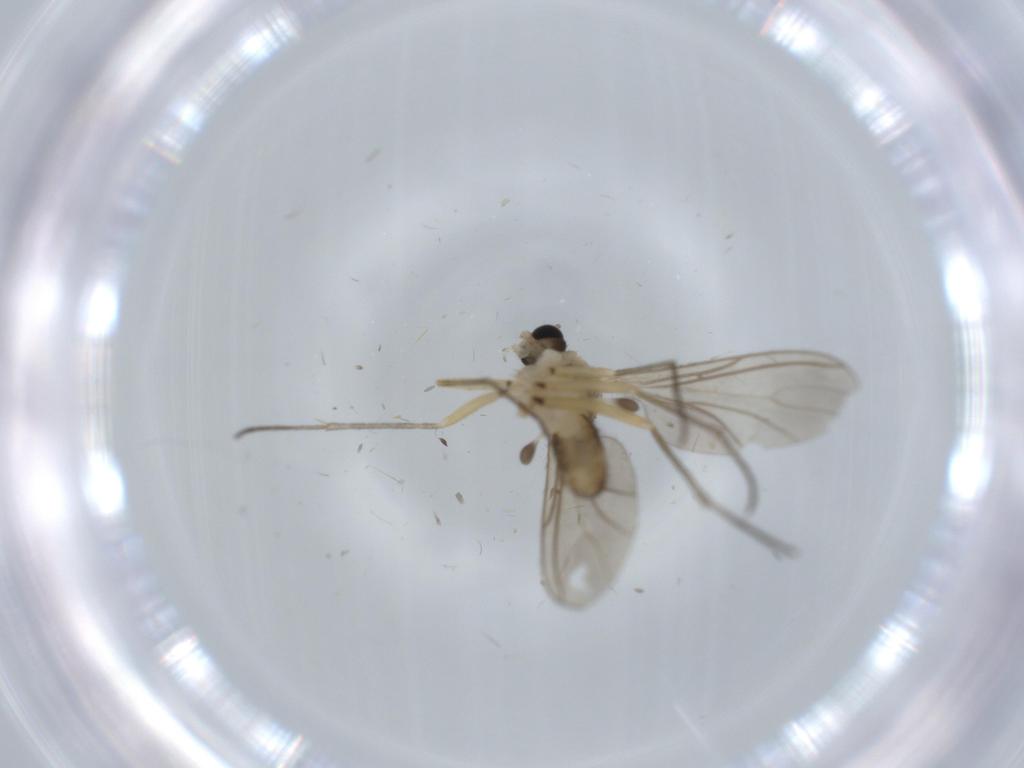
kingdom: Animalia
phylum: Arthropoda
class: Insecta
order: Diptera
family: Sciaridae
